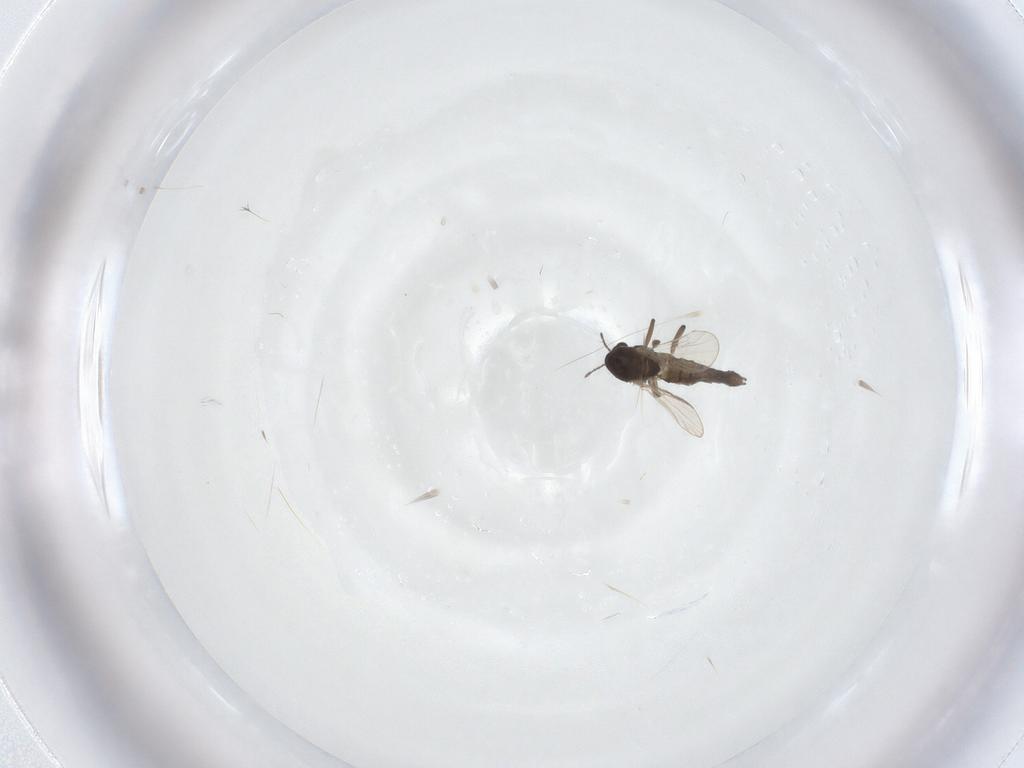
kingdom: Animalia
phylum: Arthropoda
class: Insecta
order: Diptera
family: Chironomidae
